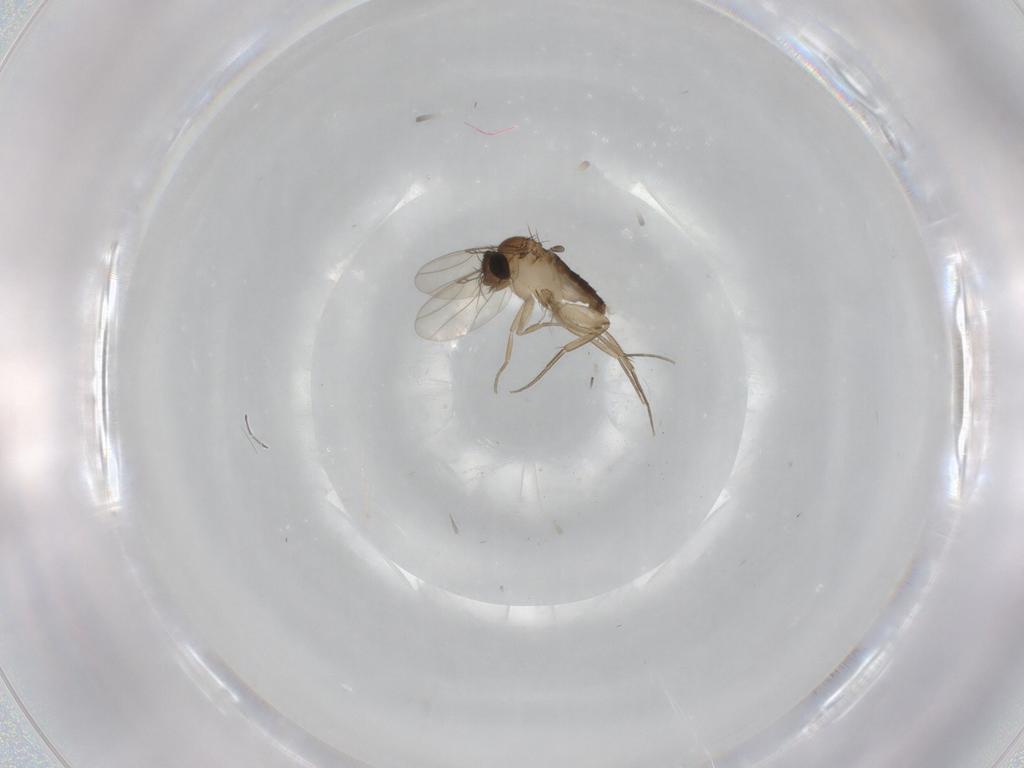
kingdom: Animalia
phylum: Arthropoda
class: Insecta
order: Diptera
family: Phoridae
